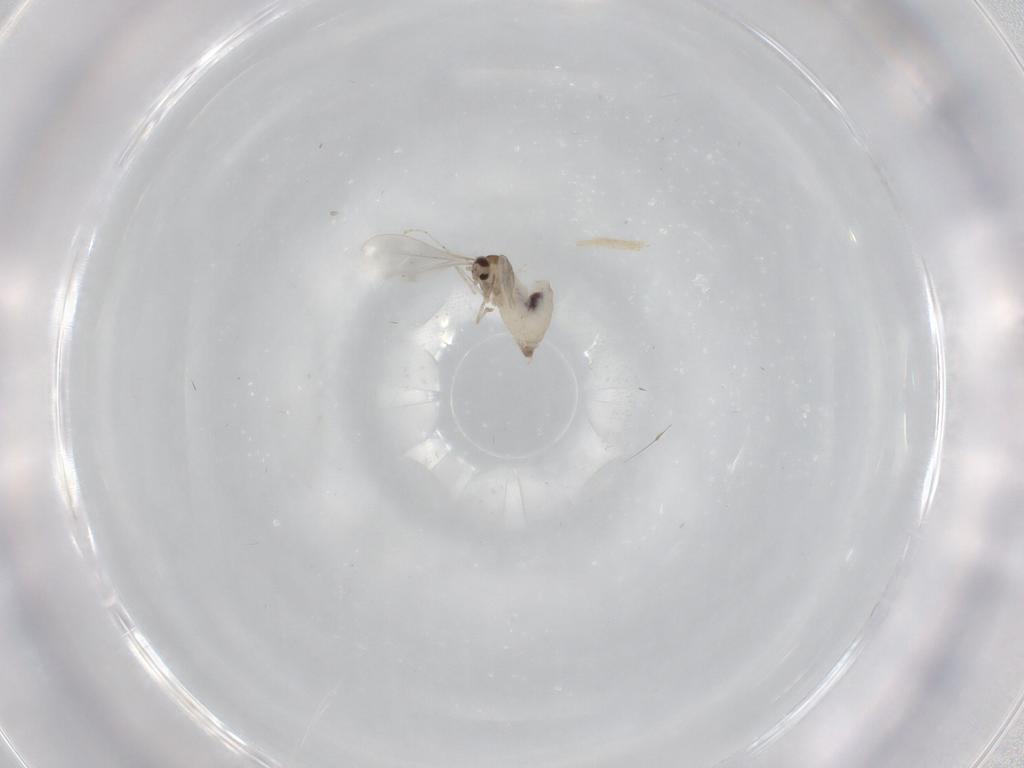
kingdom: Animalia
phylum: Arthropoda
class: Insecta
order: Diptera
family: Cecidomyiidae
